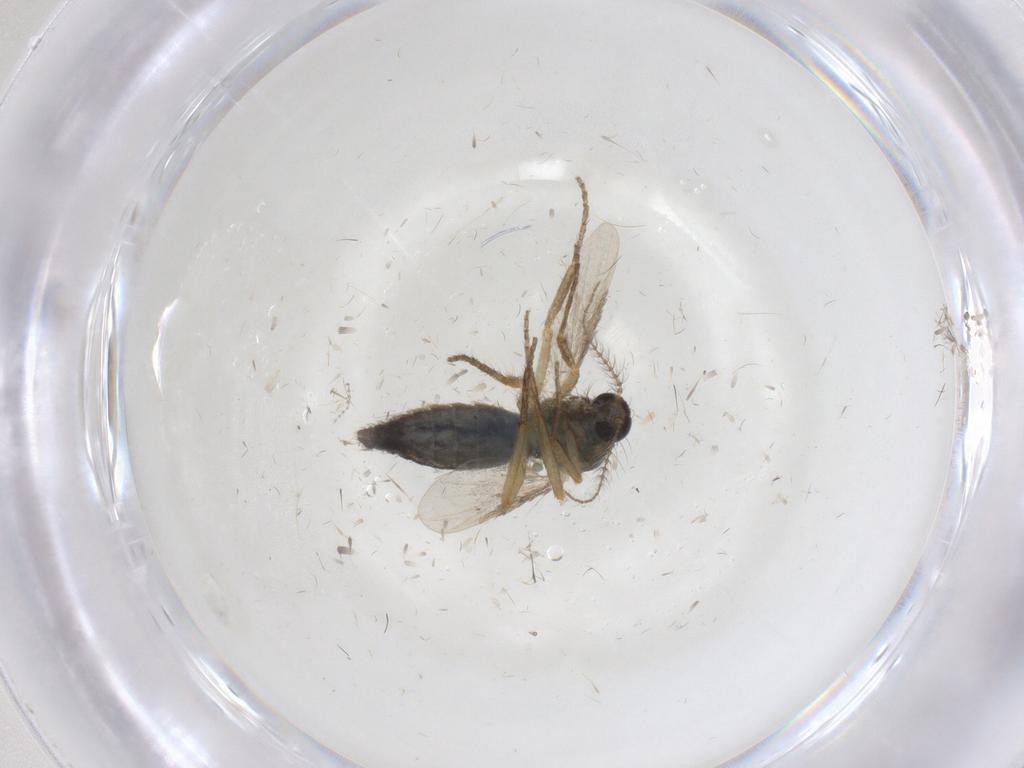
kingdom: Animalia
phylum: Arthropoda
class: Insecta
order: Diptera
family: Ceratopogonidae
